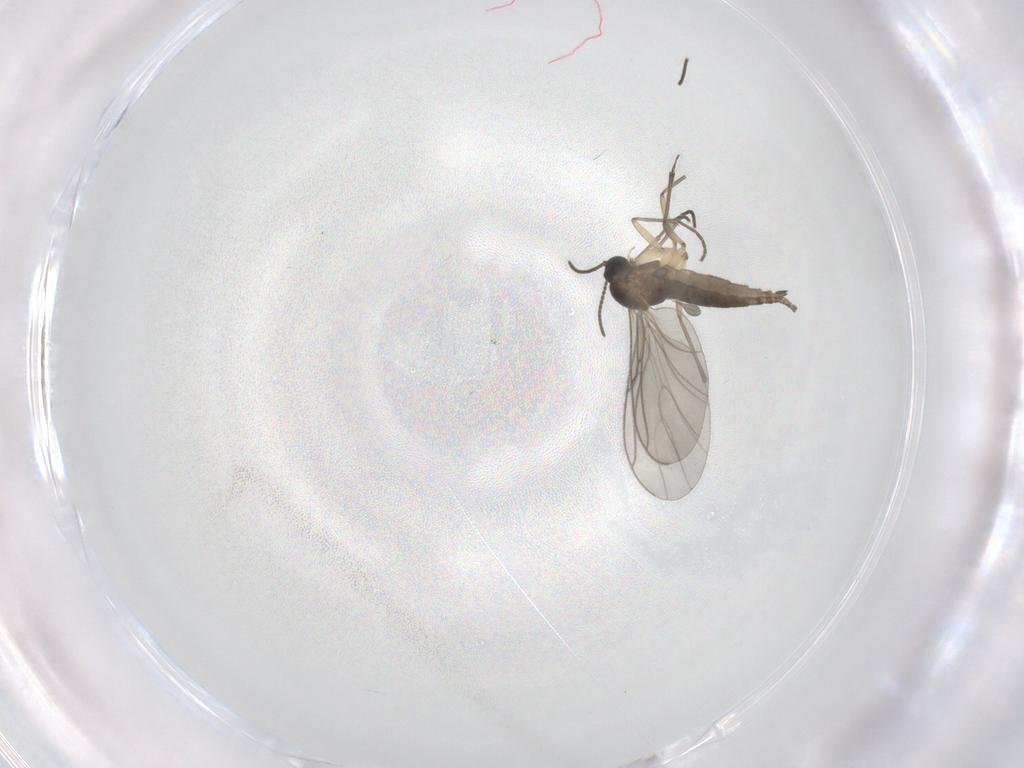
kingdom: Animalia
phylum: Arthropoda
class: Insecta
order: Diptera
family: Sciaridae
